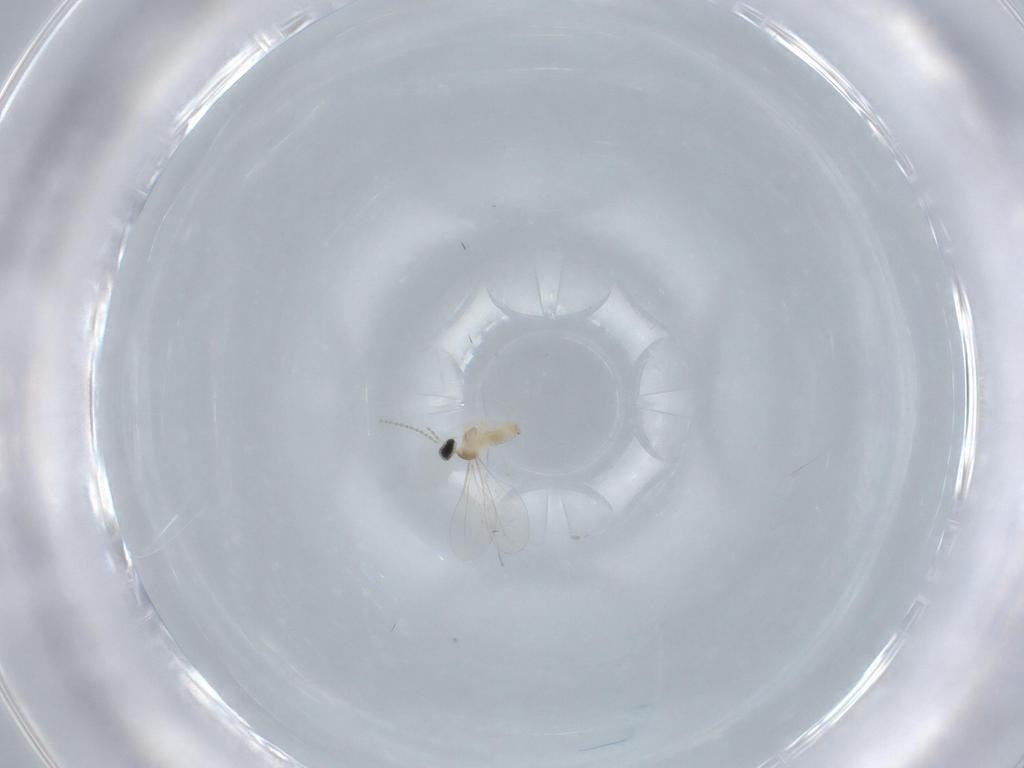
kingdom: Animalia
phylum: Arthropoda
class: Insecta
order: Diptera
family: Cecidomyiidae
